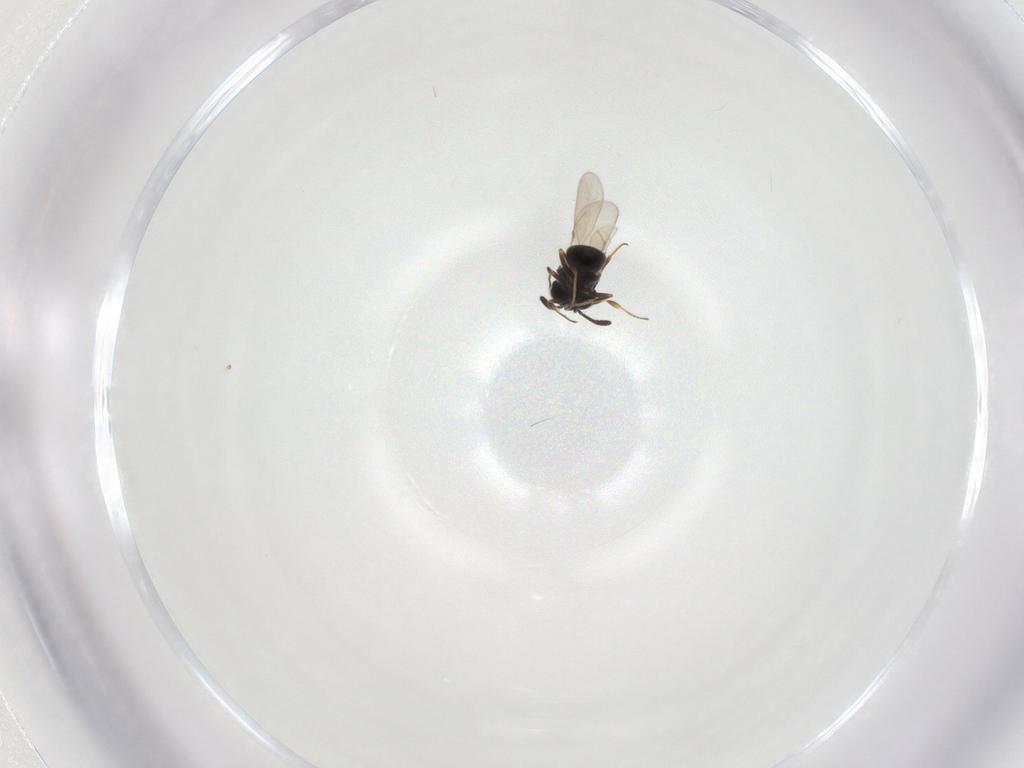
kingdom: Animalia
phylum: Arthropoda
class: Insecta
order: Hymenoptera
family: Scelionidae
